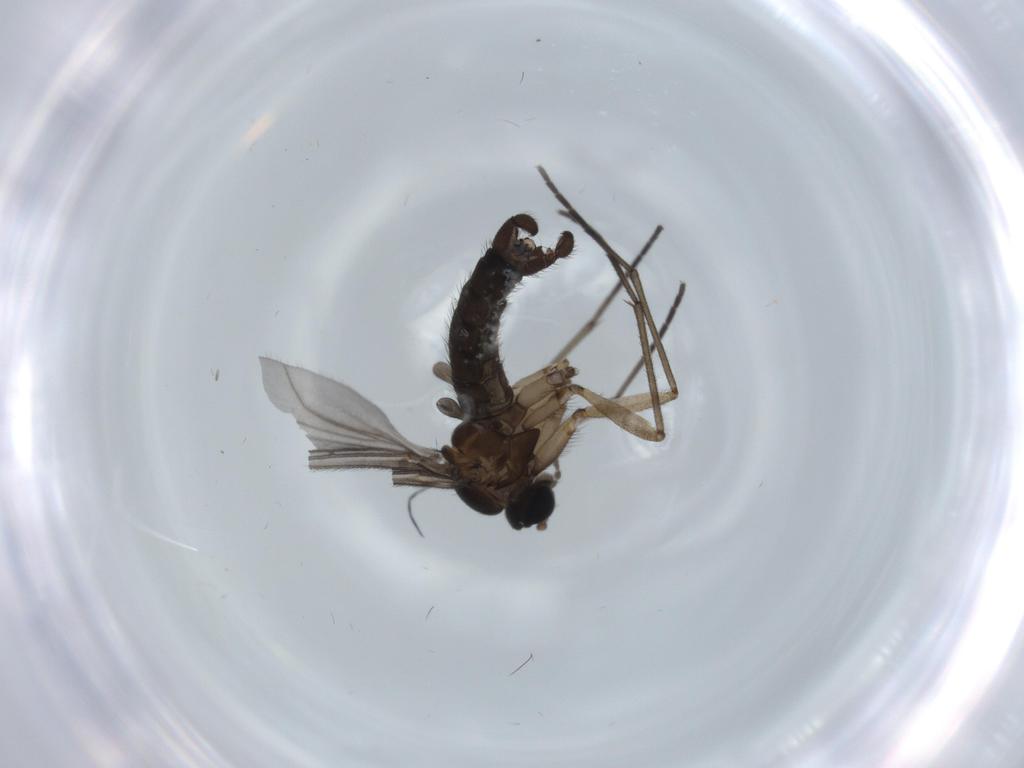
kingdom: Animalia
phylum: Arthropoda
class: Insecta
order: Diptera
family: Sciaridae
